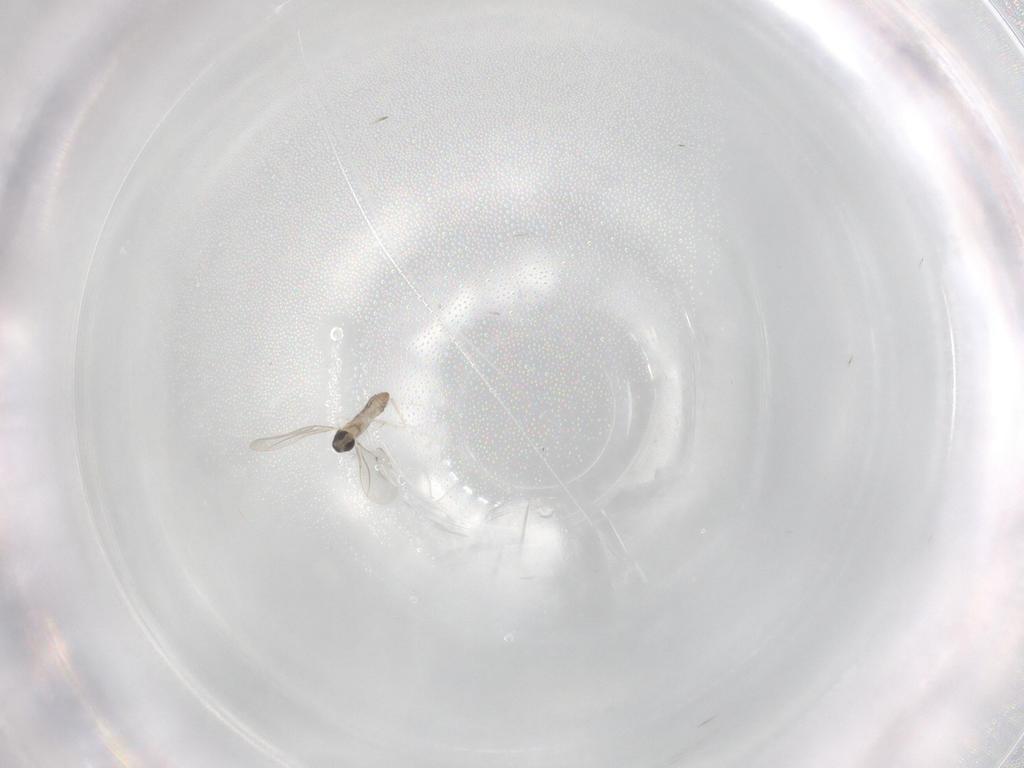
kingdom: Animalia
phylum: Arthropoda
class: Insecta
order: Diptera
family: Cecidomyiidae
